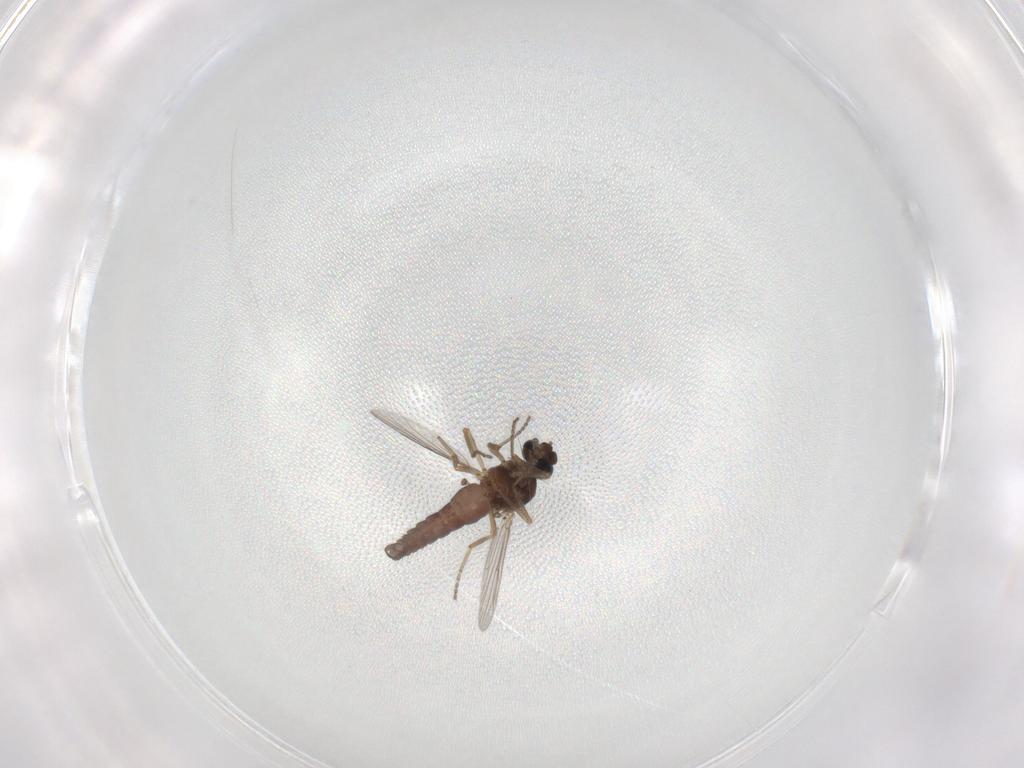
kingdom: Animalia
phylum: Arthropoda
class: Insecta
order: Diptera
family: Ceratopogonidae
